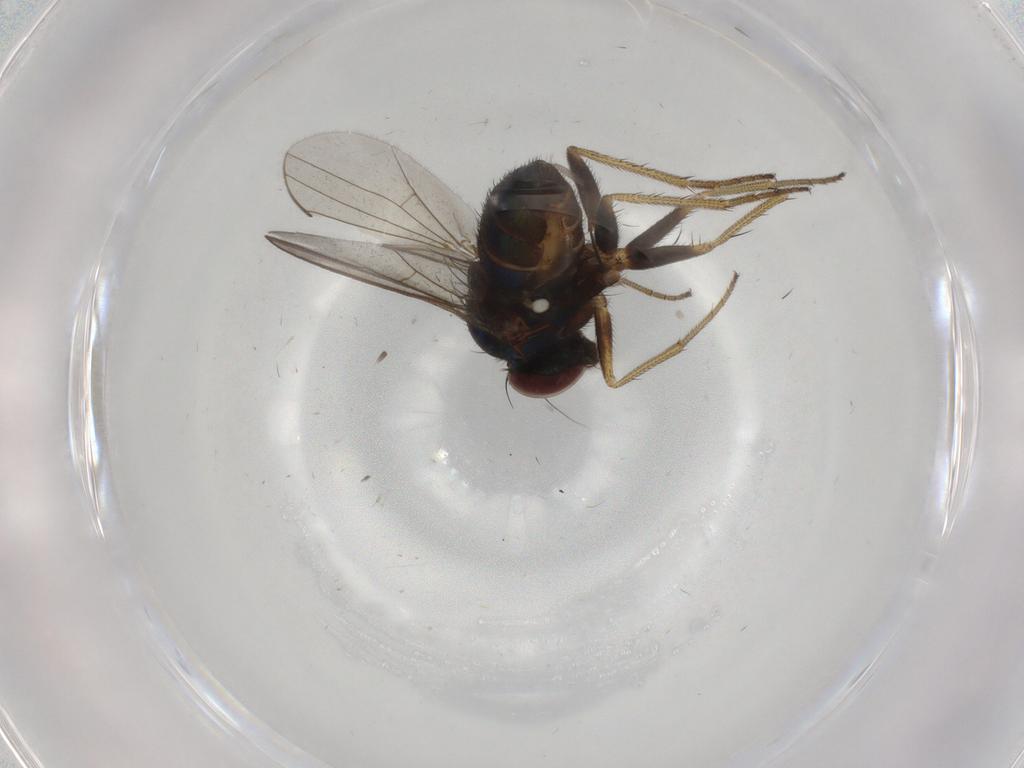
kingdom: Animalia
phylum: Arthropoda
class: Insecta
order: Diptera
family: Dolichopodidae
